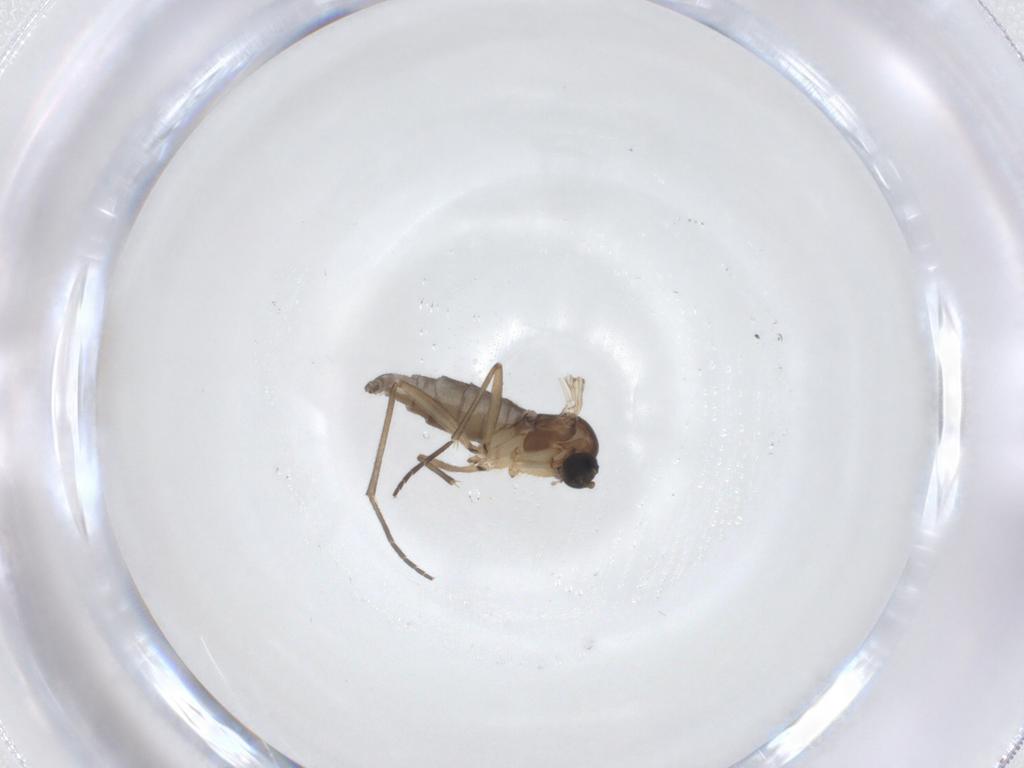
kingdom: Animalia
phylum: Arthropoda
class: Insecta
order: Diptera
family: Sciaridae
